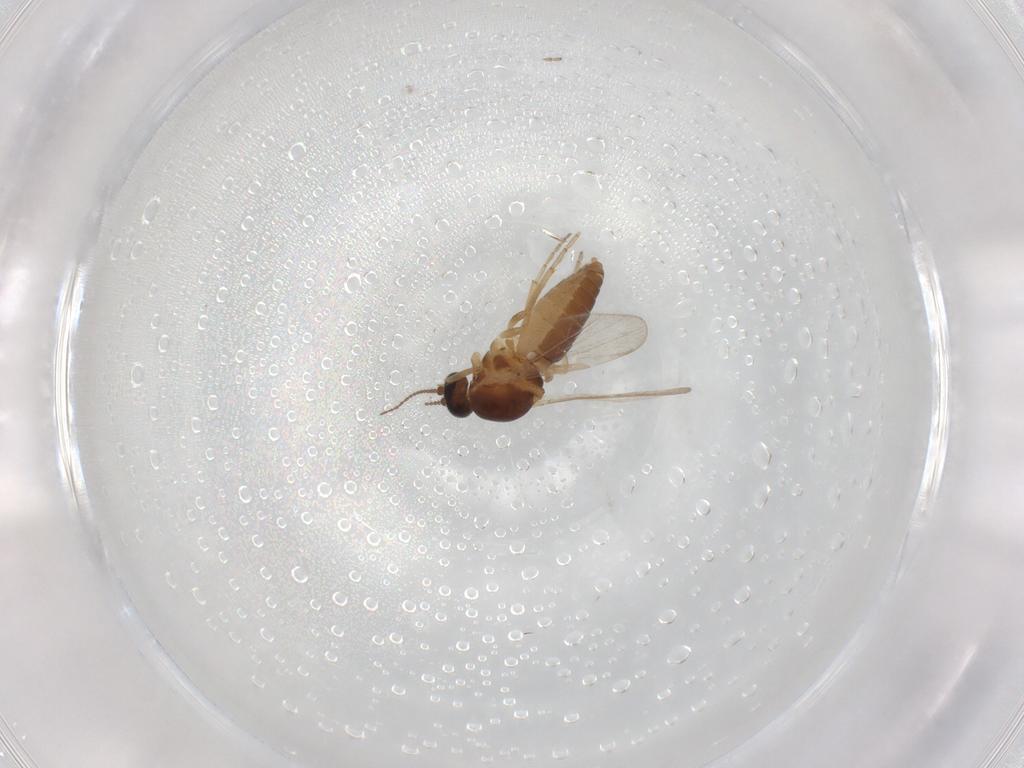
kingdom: Animalia
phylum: Arthropoda
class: Insecta
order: Diptera
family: Ceratopogonidae
